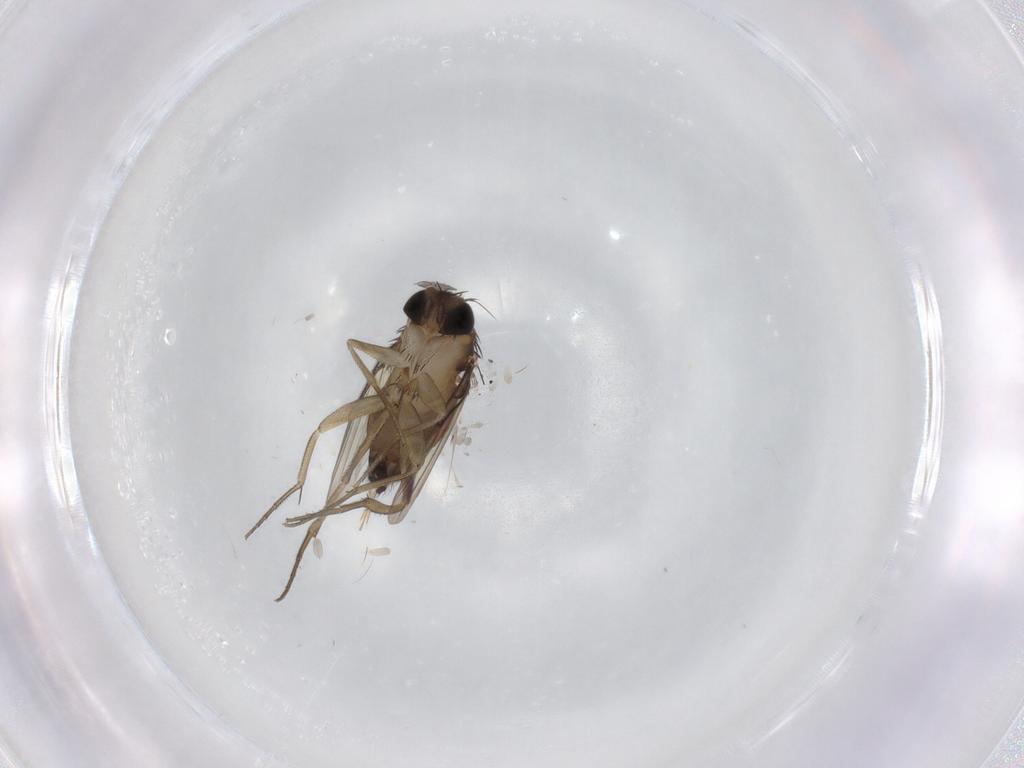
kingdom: Animalia
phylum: Arthropoda
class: Insecta
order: Diptera
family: Phoridae
